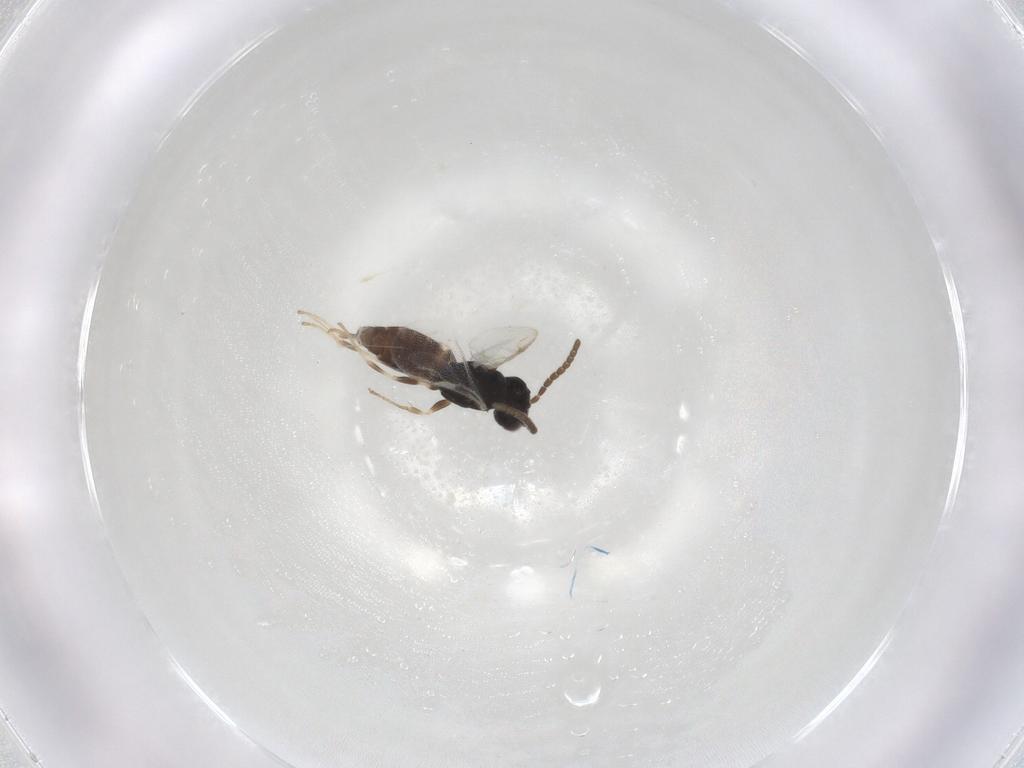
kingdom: Animalia
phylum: Arthropoda
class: Insecta
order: Hymenoptera
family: Dryinidae
